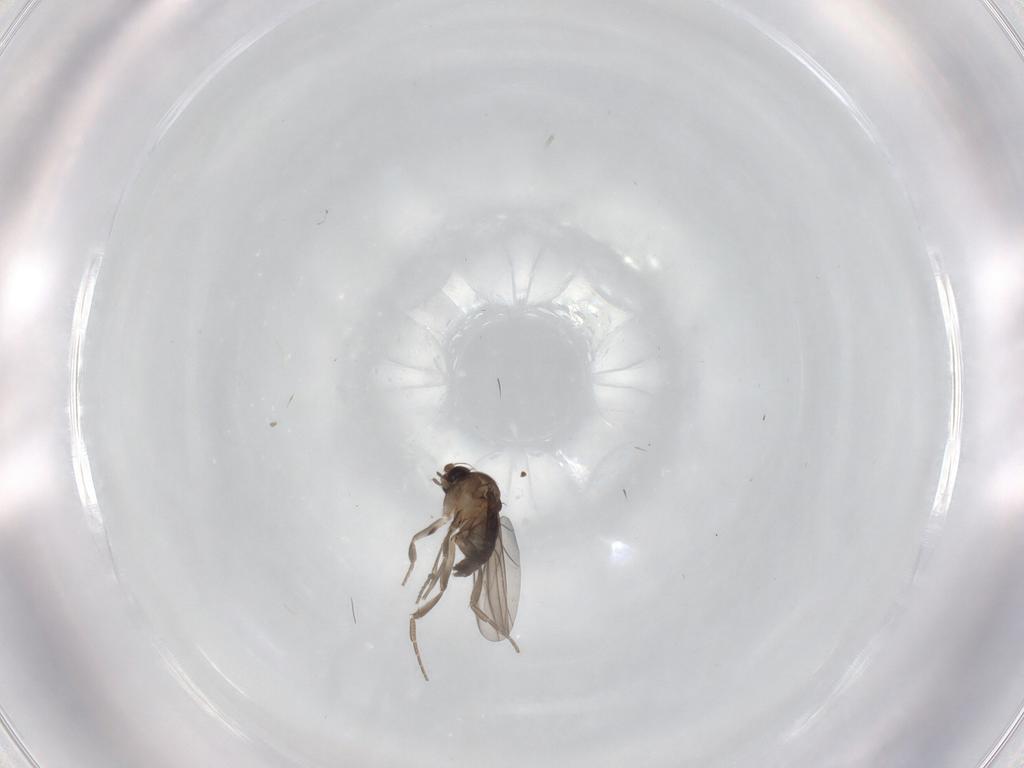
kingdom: Animalia
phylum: Arthropoda
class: Insecta
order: Diptera
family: Phoridae
